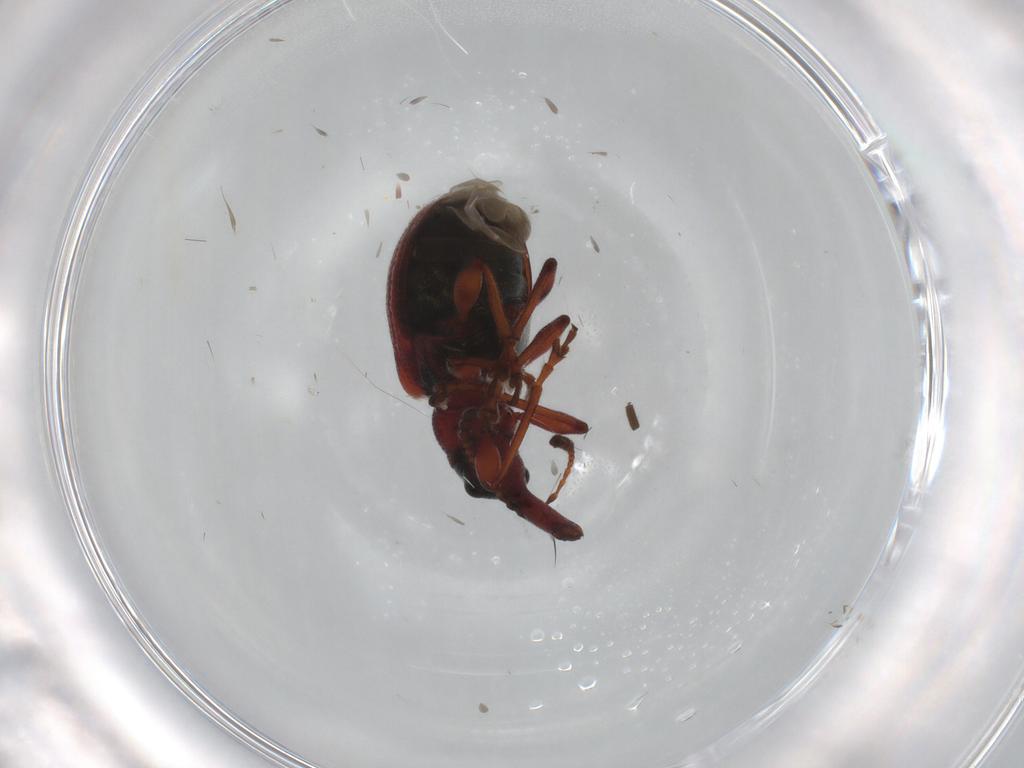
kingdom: Animalia
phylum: Arthropoda
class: Insecta
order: Coleoptera
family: Attelabidae
